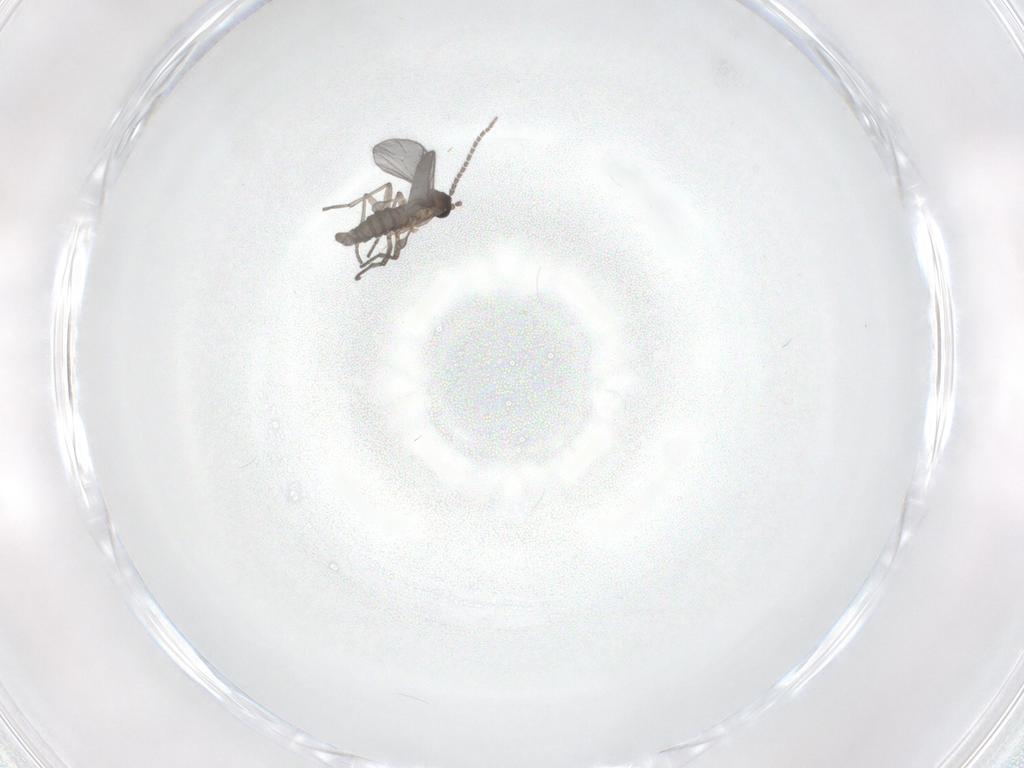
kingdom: Animalia
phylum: Arthropoda
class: Insecta
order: Diptera
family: Sciaridae
